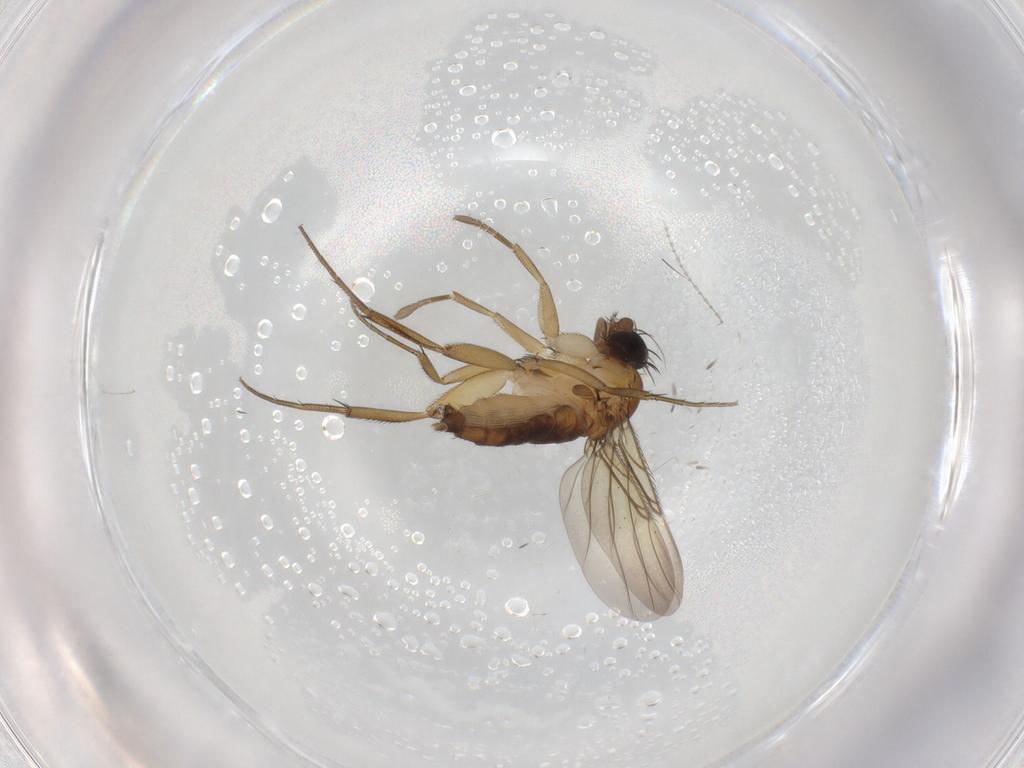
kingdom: Animalia
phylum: Arthropoda
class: Insecta
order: Diptera
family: Phoridae
